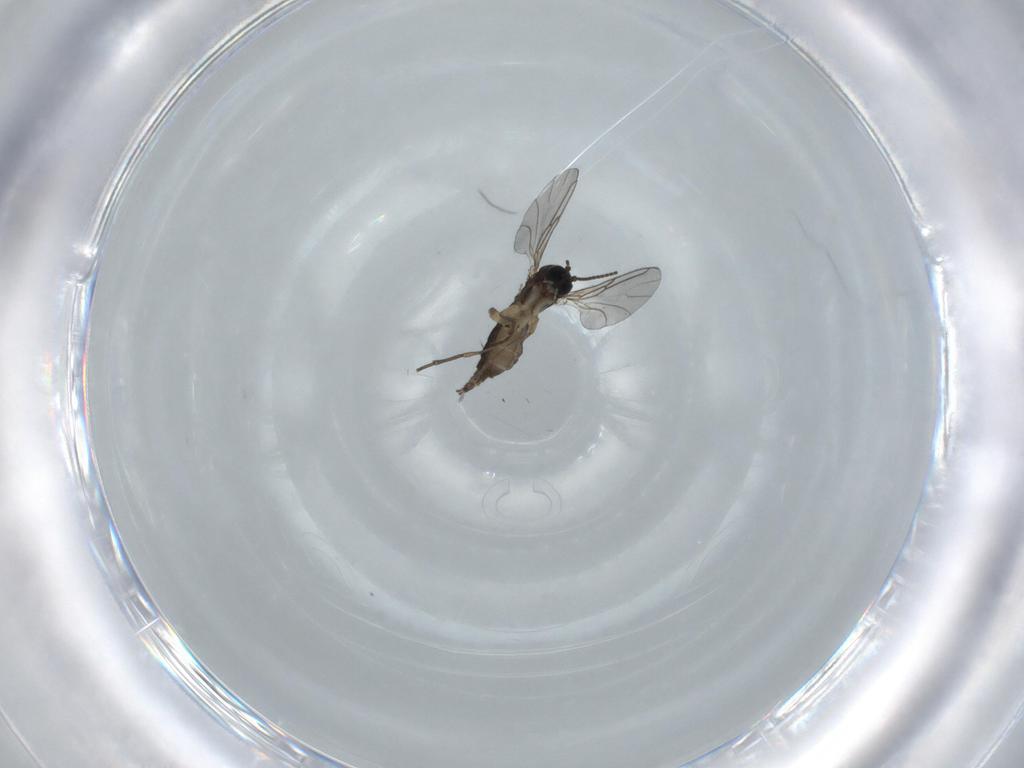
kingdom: Animalia
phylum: Arthropoda
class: Insecta
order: Diptera
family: Sciaridae
